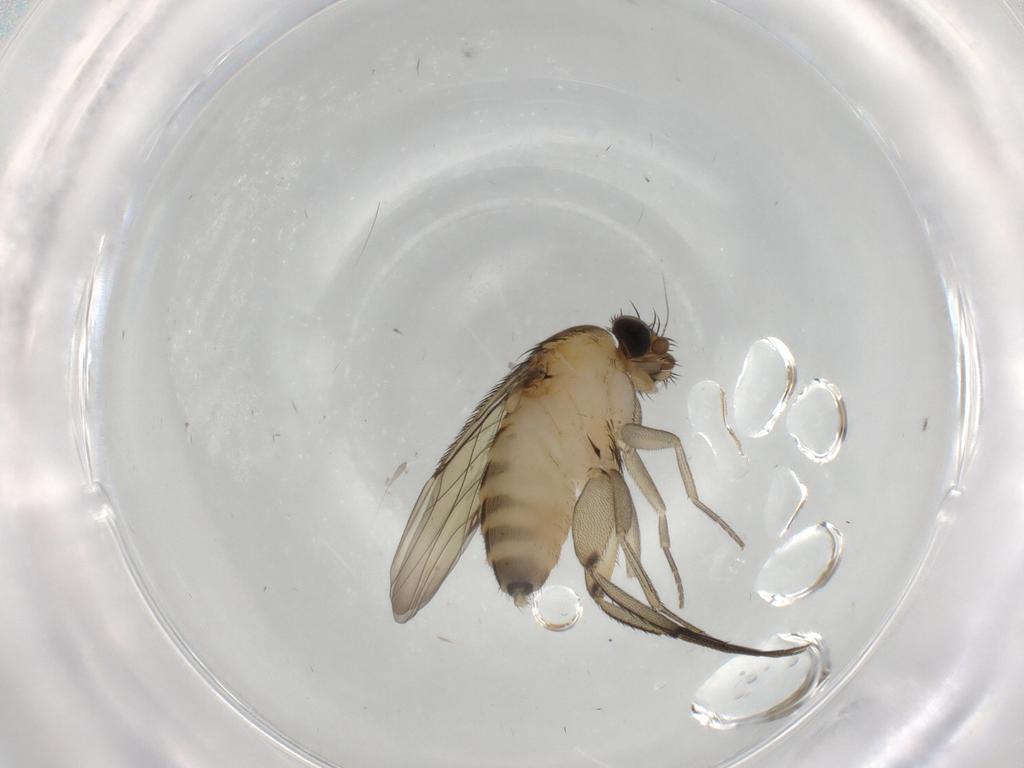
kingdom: Animalia
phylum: Arthropoda
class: Insecta
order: Diptera
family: Phoridae
